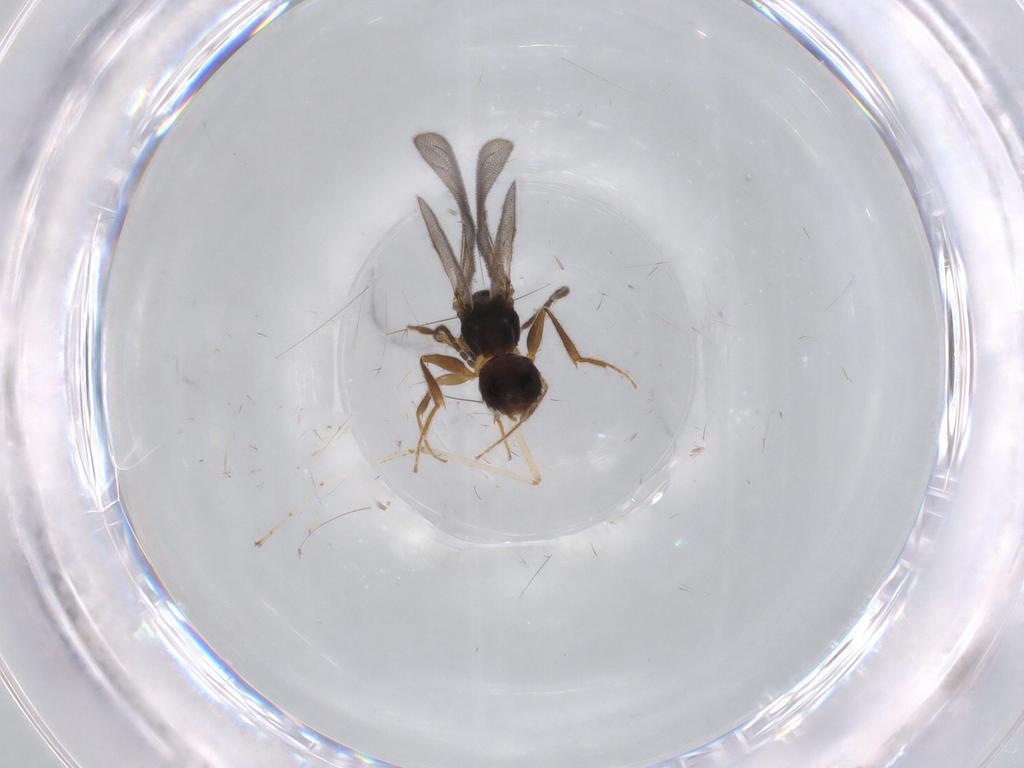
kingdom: Animalia
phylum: Arthropoda
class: Insecta
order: Hymenoptera
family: Bethylidae
